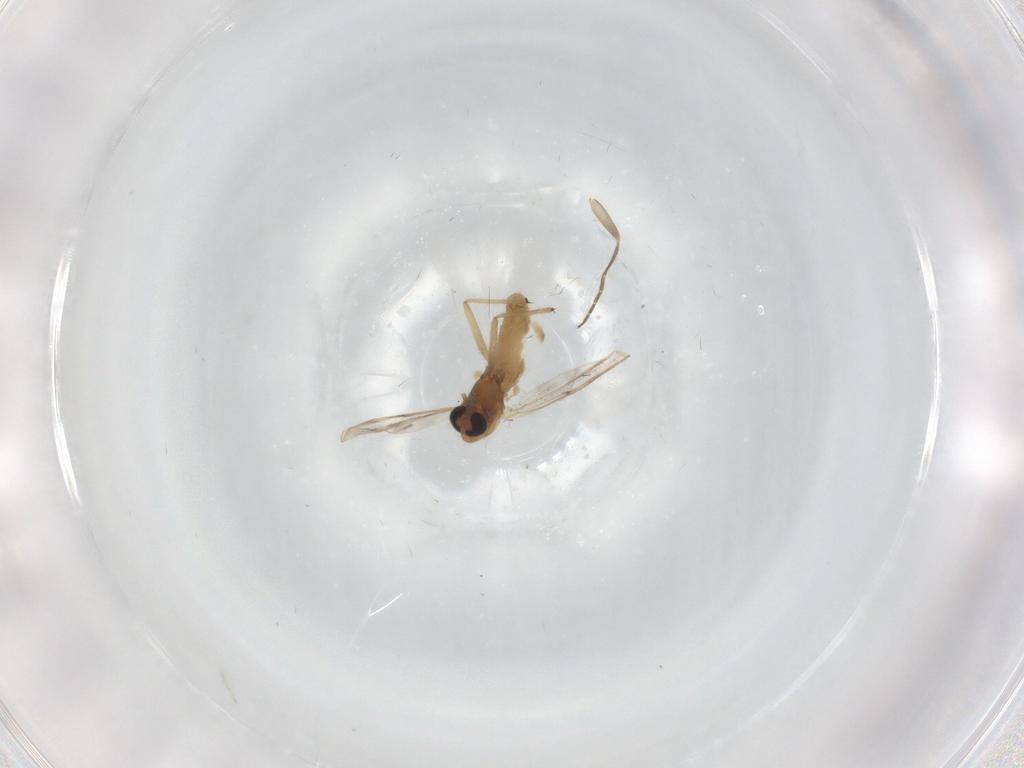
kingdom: Animalia
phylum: Arthropoda
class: Insecta
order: Diptera
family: Chironomidae
